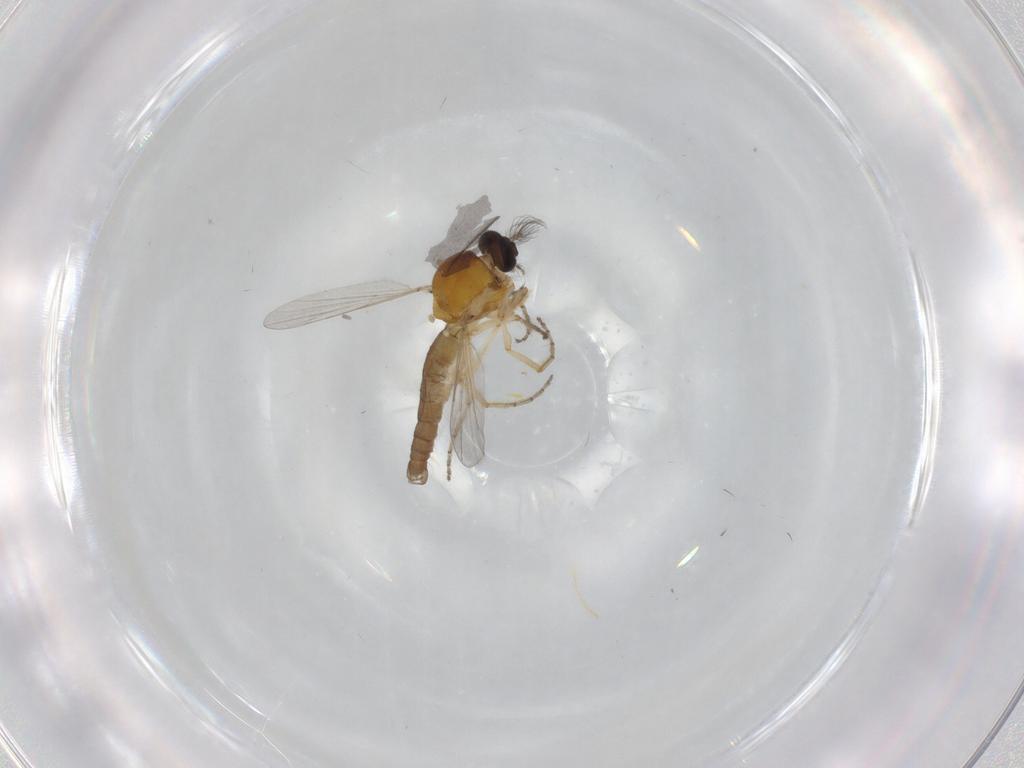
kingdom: Animalia
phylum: Arthropoda
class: Insecta
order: Diptera
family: Ceratopogonidae
